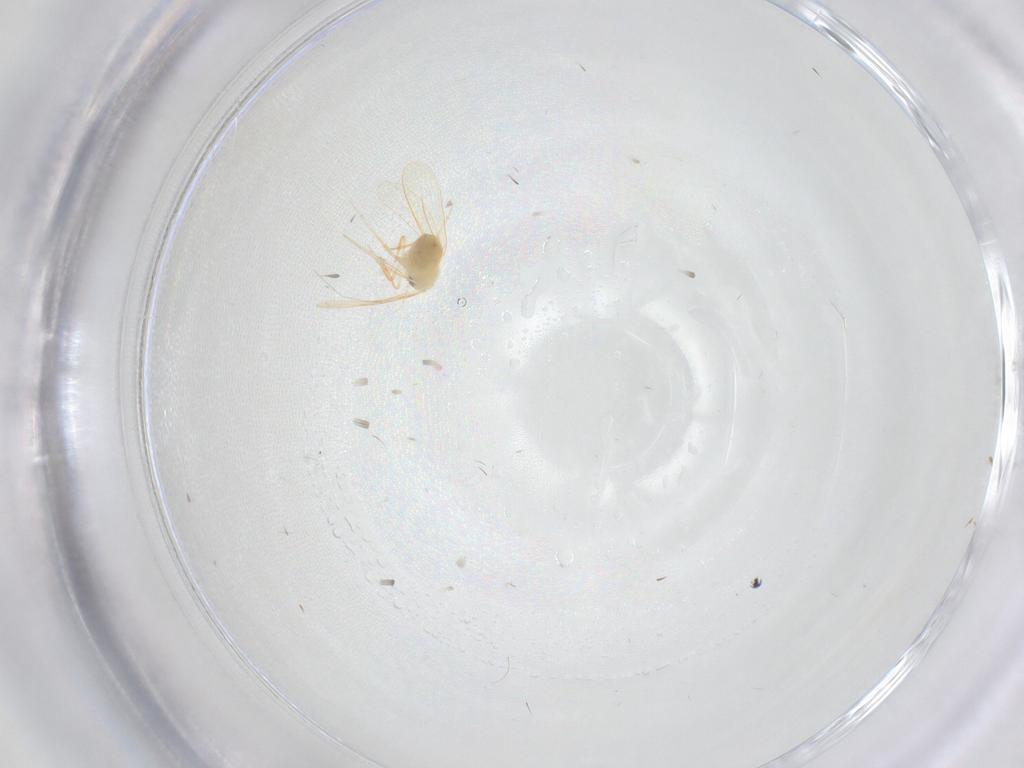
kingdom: Animalia
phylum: Arthropoda
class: Insecta
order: Hemiptera
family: Aleyrodidae
